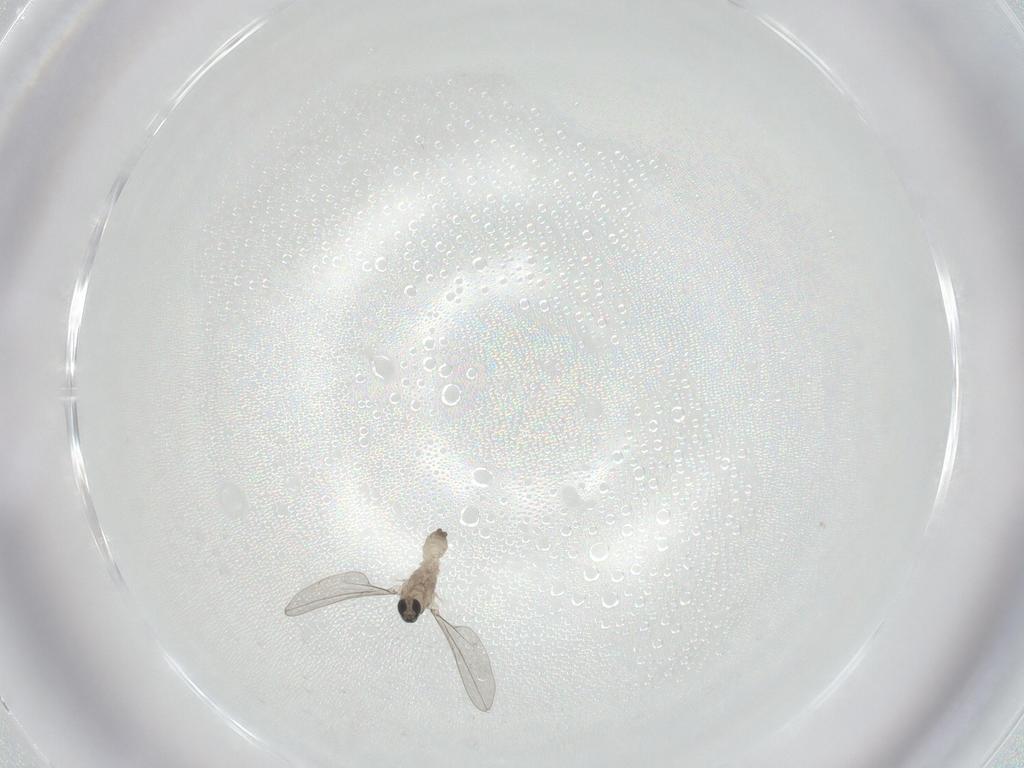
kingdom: Animalia
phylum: Arthropoda
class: Insecta
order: Diptera
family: Cecidomyiidae
